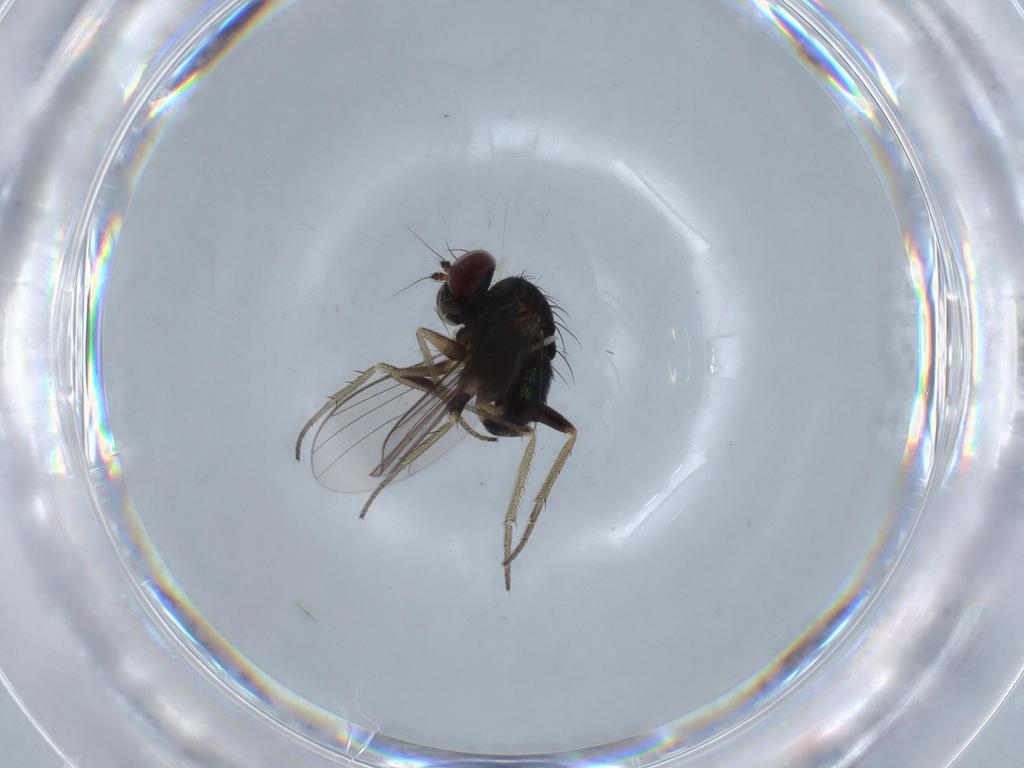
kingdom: Animalia
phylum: Arthropoda
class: Insecta
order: Diptera
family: Dolichopodidae
